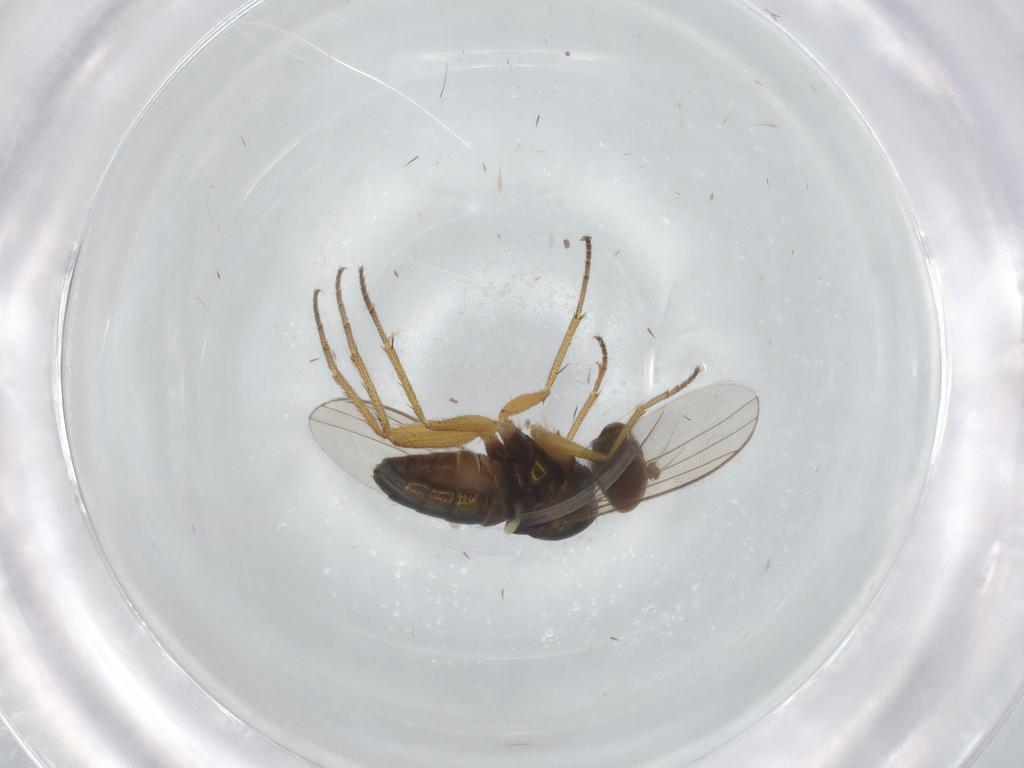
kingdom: Animalia
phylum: Arthropoda
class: Insecta
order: Diptera
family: Dolichopodidae
